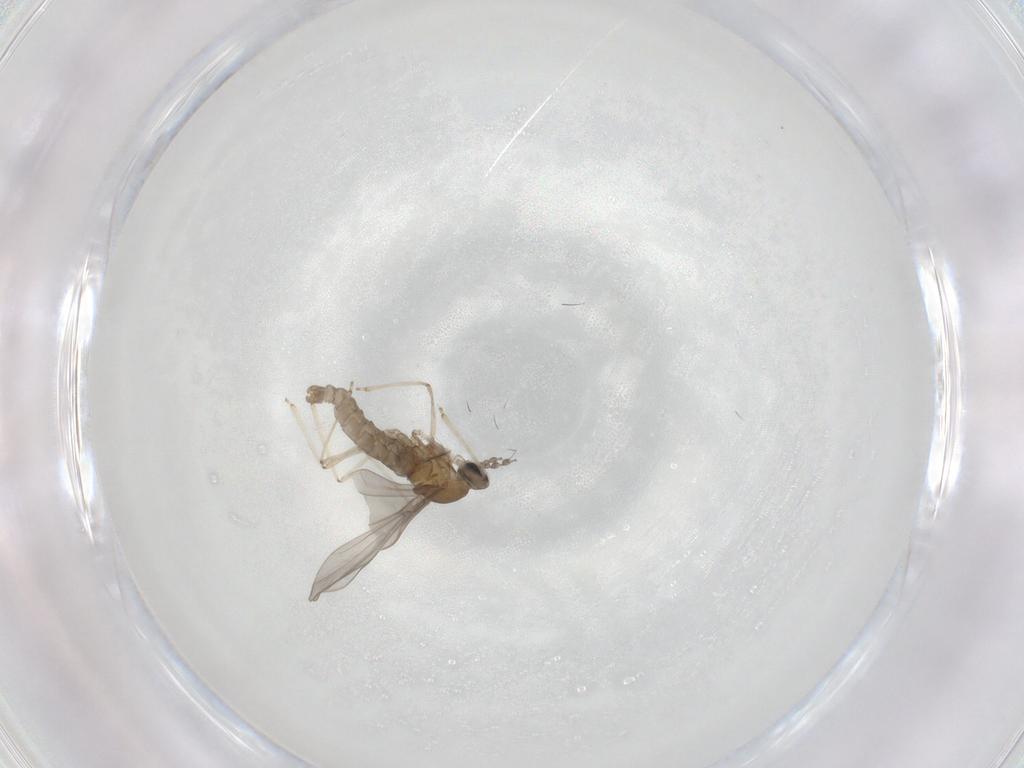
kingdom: Animalia
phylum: Arthropoda
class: Insecta
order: Diptera
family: Cecidomyiidae
